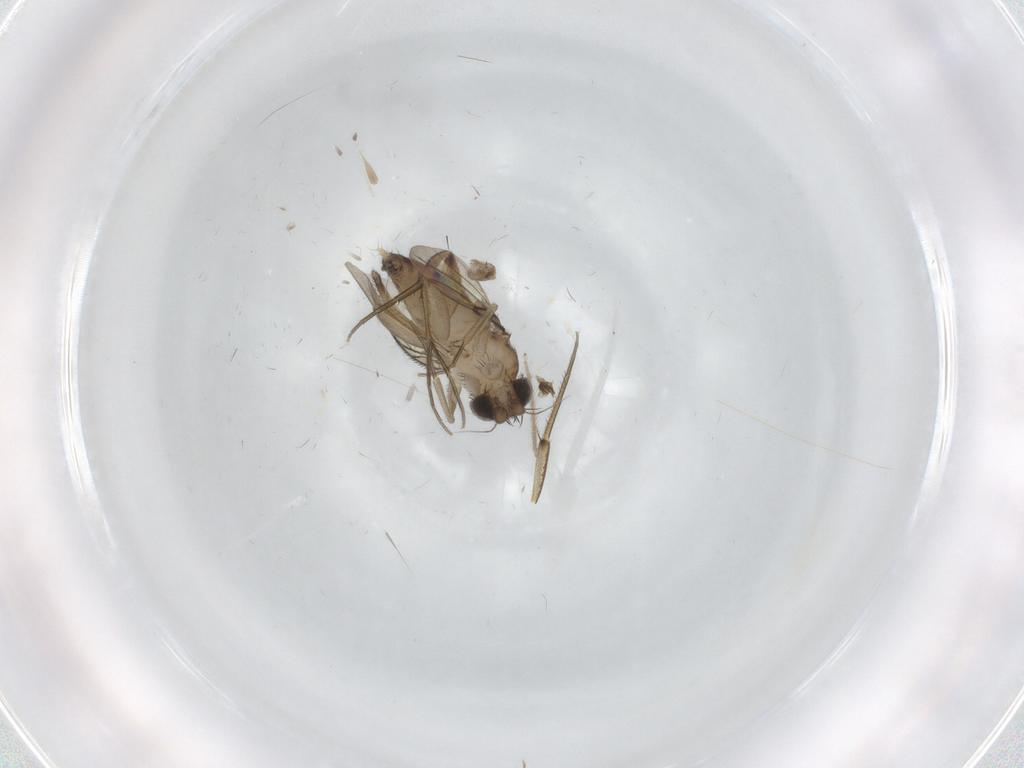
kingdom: Animalia
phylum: Arthropoda
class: Insecta
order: Diptera
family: Phoridae
